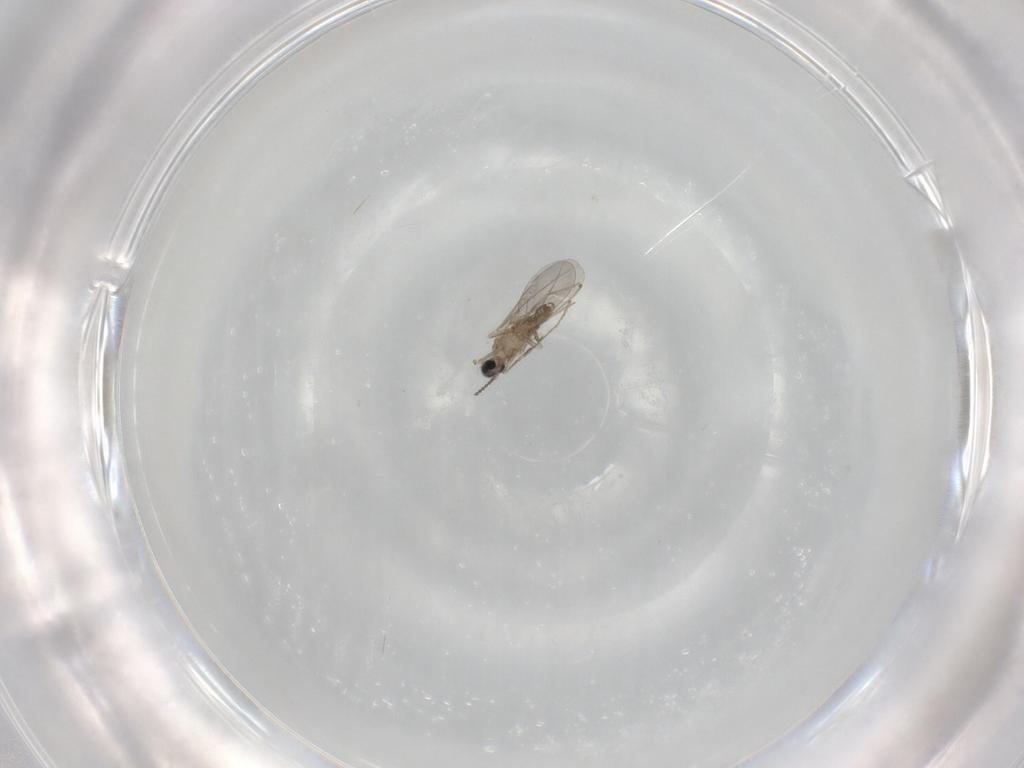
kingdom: Animalia
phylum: Arthropoda
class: Insecta
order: Diptera
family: Cecidomyiidae
